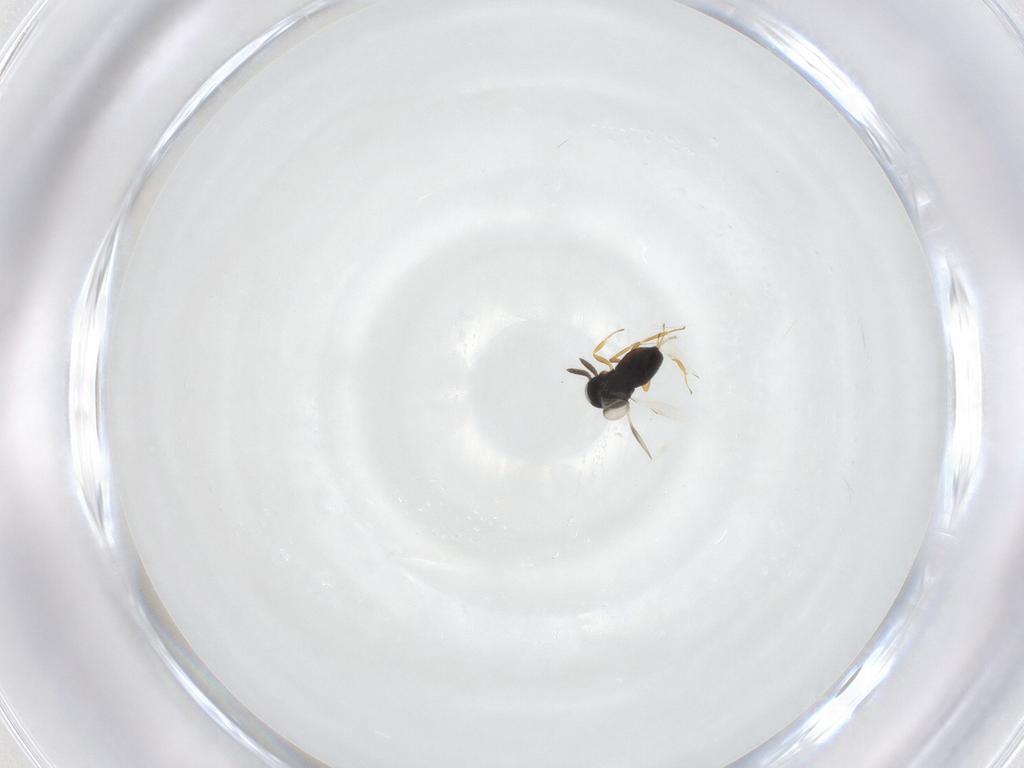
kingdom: Animalia
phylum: Arthropoda
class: Insecta
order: Hymenoptera
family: Scelionidae
